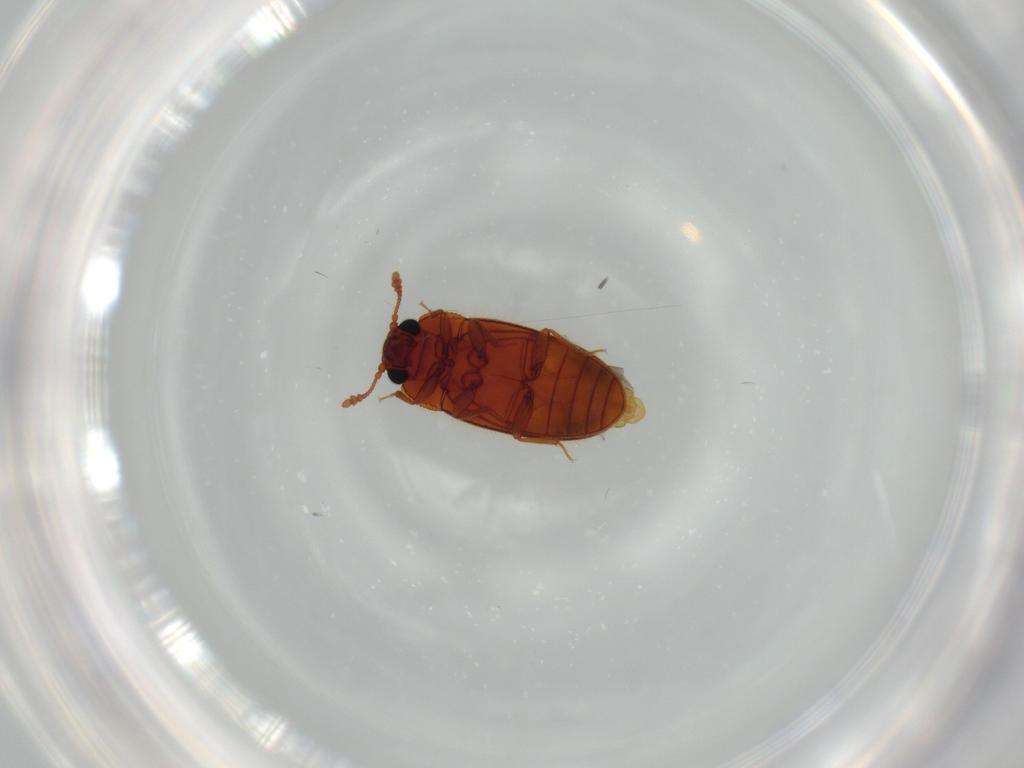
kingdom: Animalia
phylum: Arthropoda
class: Insecta
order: Coleoptera
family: Biphyllidae
